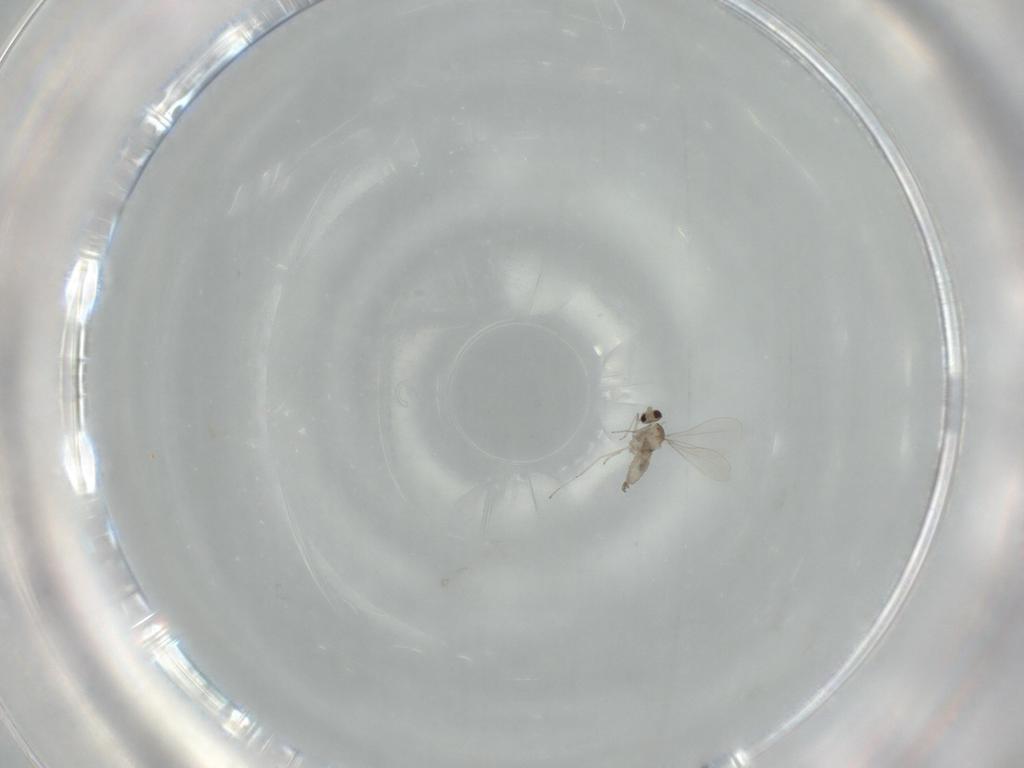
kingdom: Animalia
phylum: Arthropoda
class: Insecta
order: Diptera
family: Cecidomyiidae
